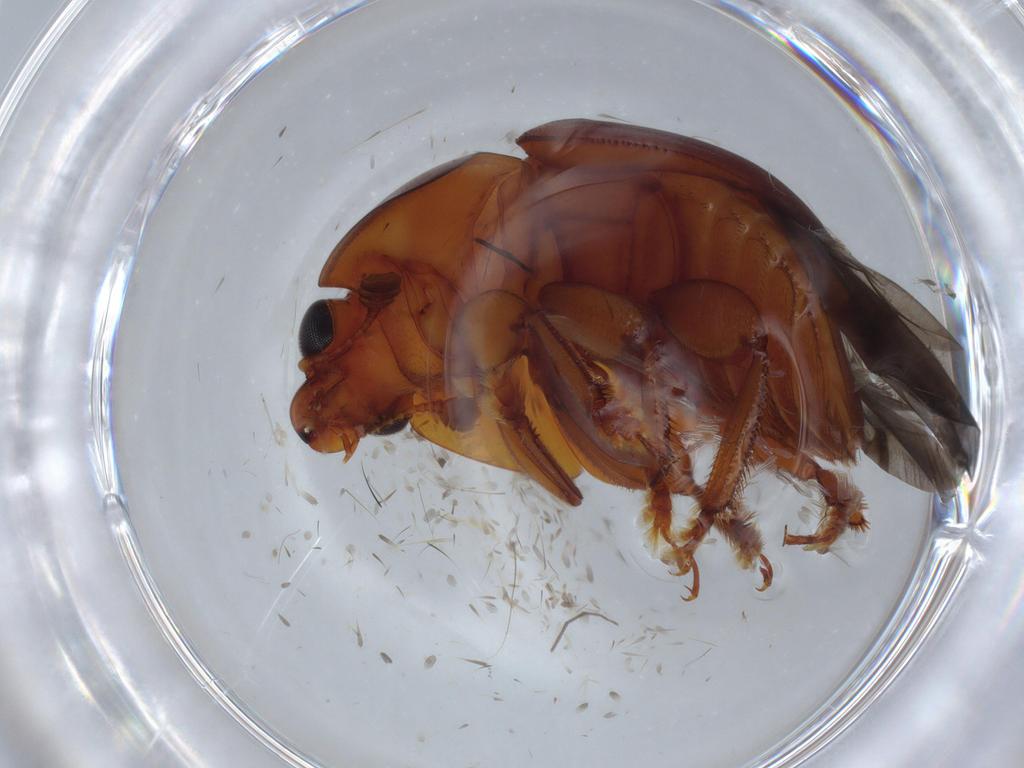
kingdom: Animalia
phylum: Arthropoda
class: Insecta
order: Coleoptera
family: Nitidulidae
